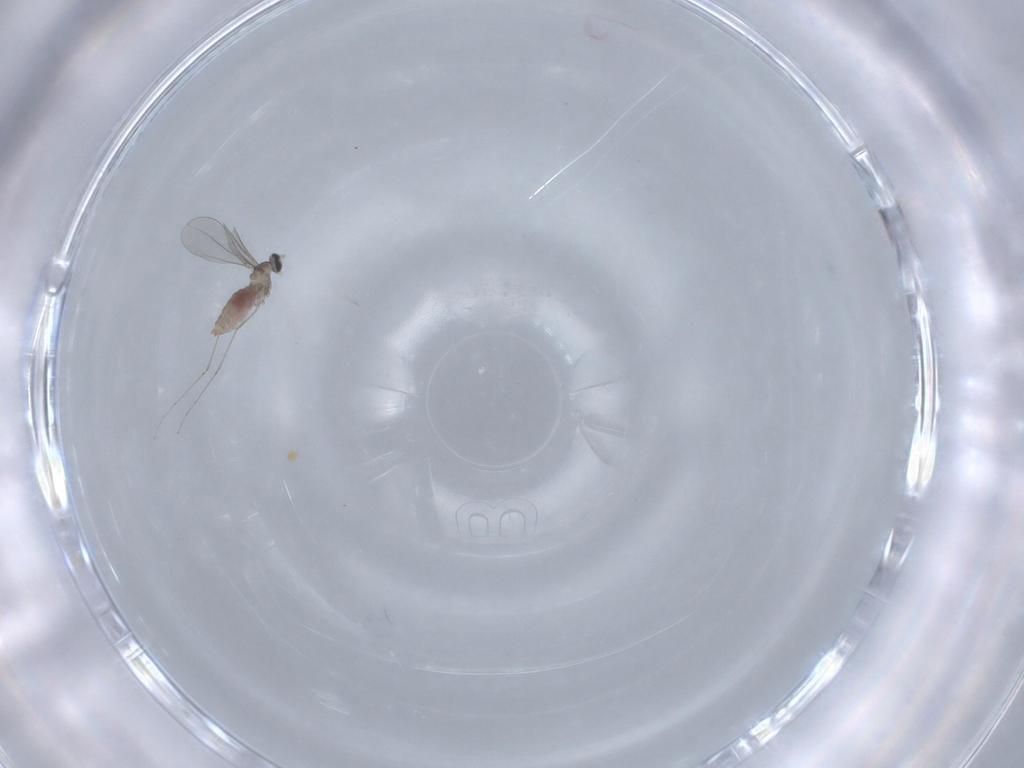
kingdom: Animalia
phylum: Arthropoda
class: Insecta
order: Diptera
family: Cecidomyiidae
